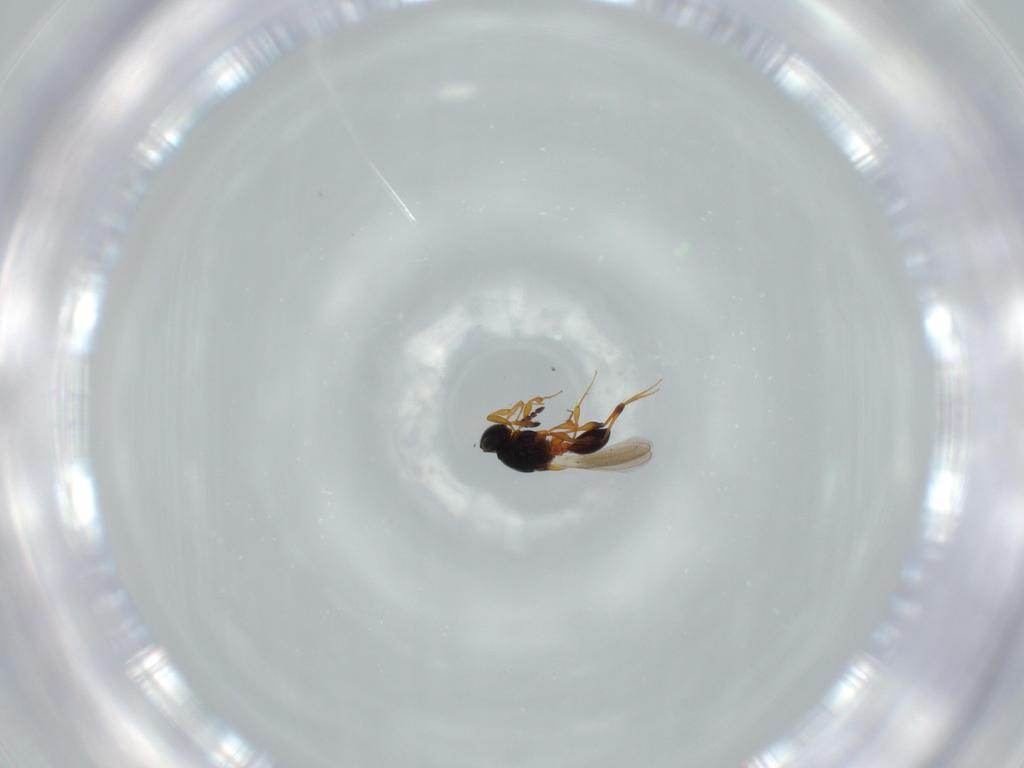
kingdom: Animalia
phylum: Arthropoda
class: Insecta
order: Hymenoptera
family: Platygastridae
